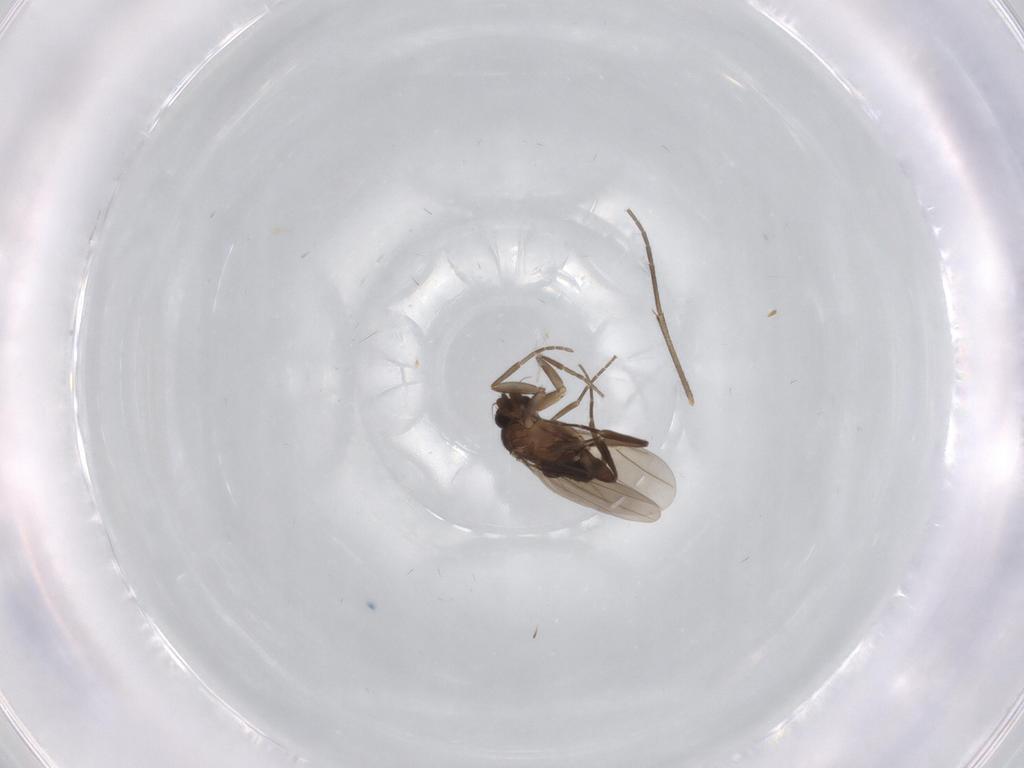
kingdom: Animalia
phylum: Arthropoda
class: Insecta
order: Diptera
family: Phoridae
